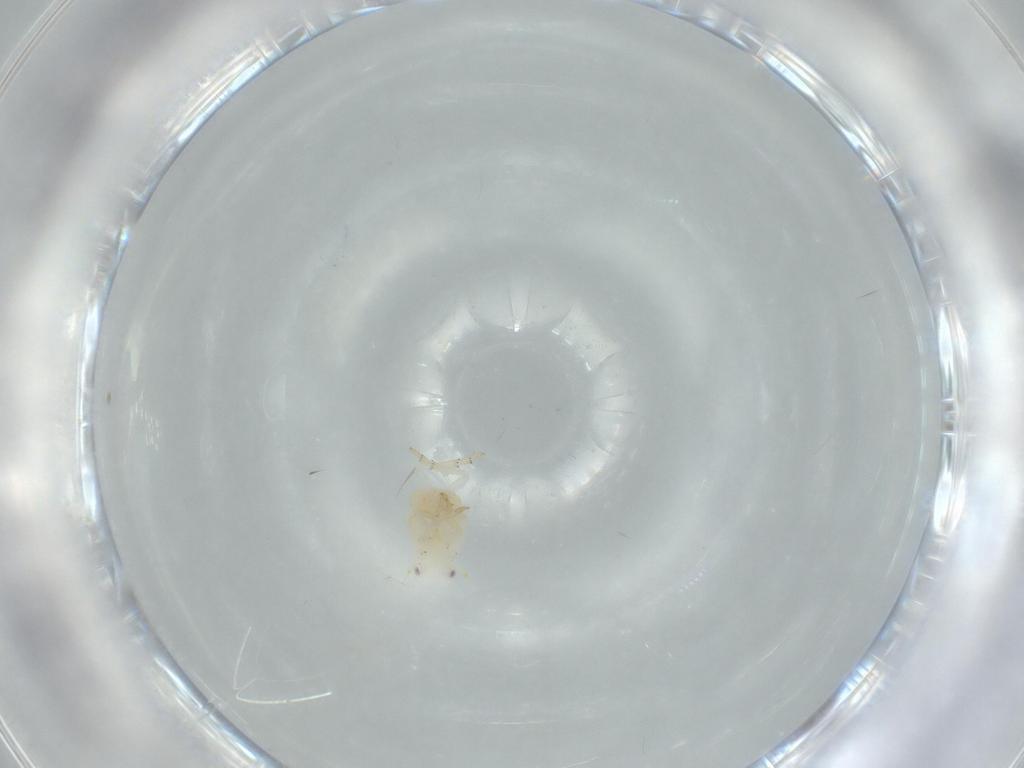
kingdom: Animalia
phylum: Arthropoda
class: Insecta
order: Hemiptera
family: Flatidae
